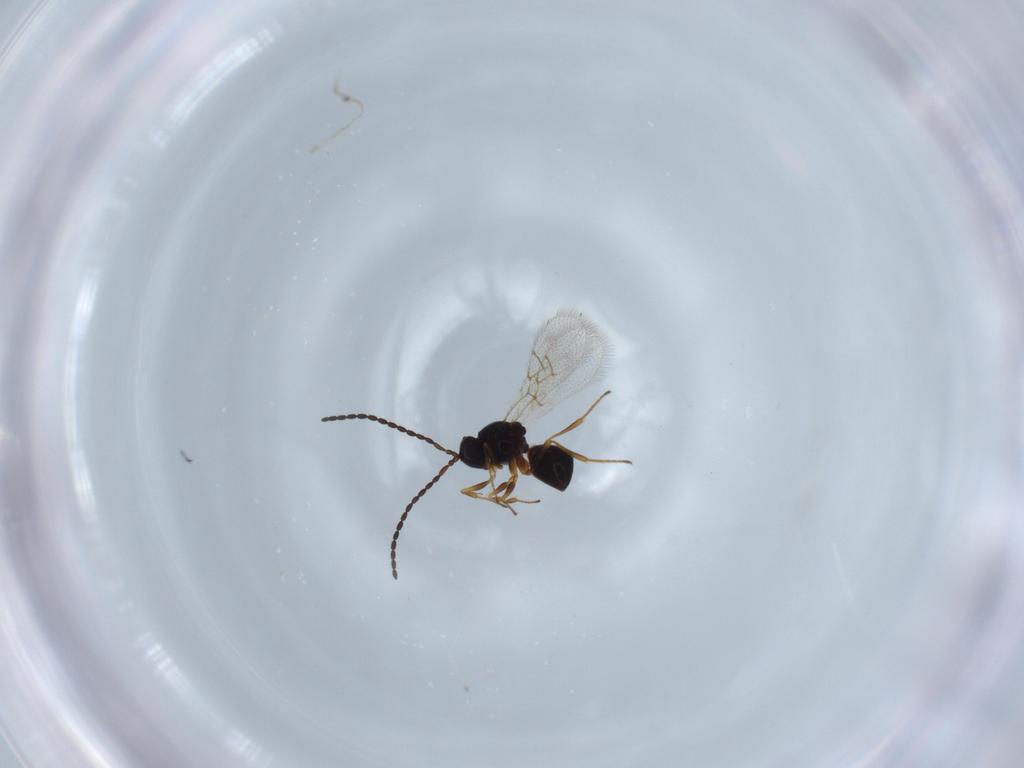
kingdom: Animalia
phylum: Arthropoda
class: Insecta
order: Hymenoptera
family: Figitidae
